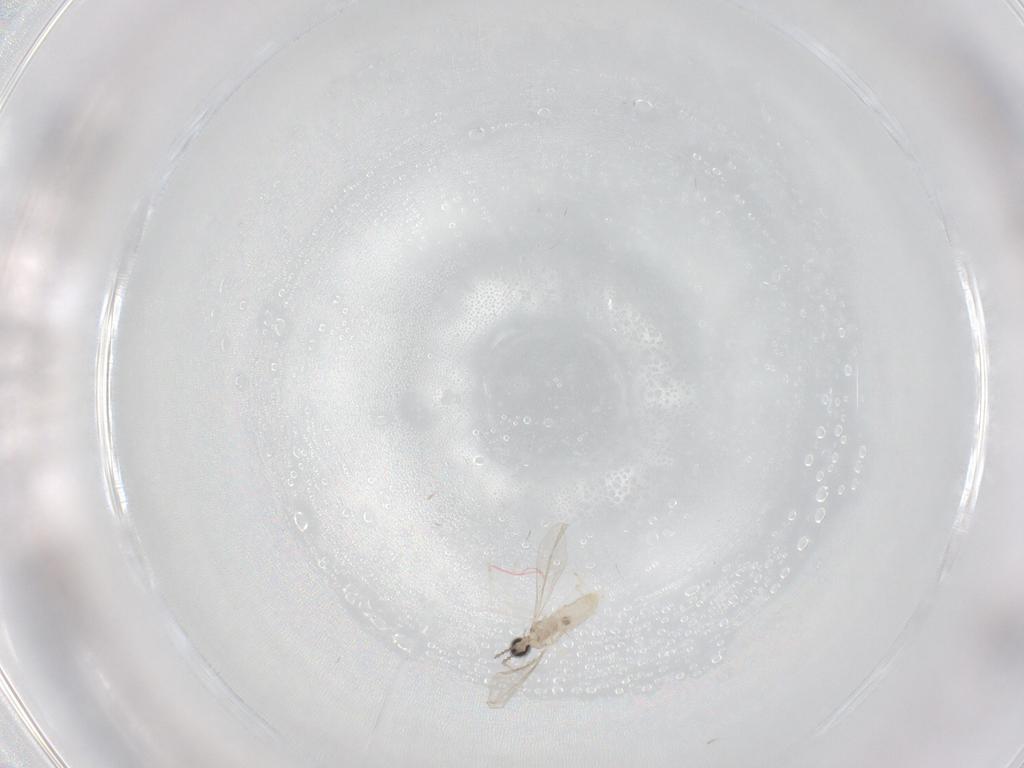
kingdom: Animalia
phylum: Arthropoda
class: Insecta
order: Diptera
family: Cecidomyiidae
